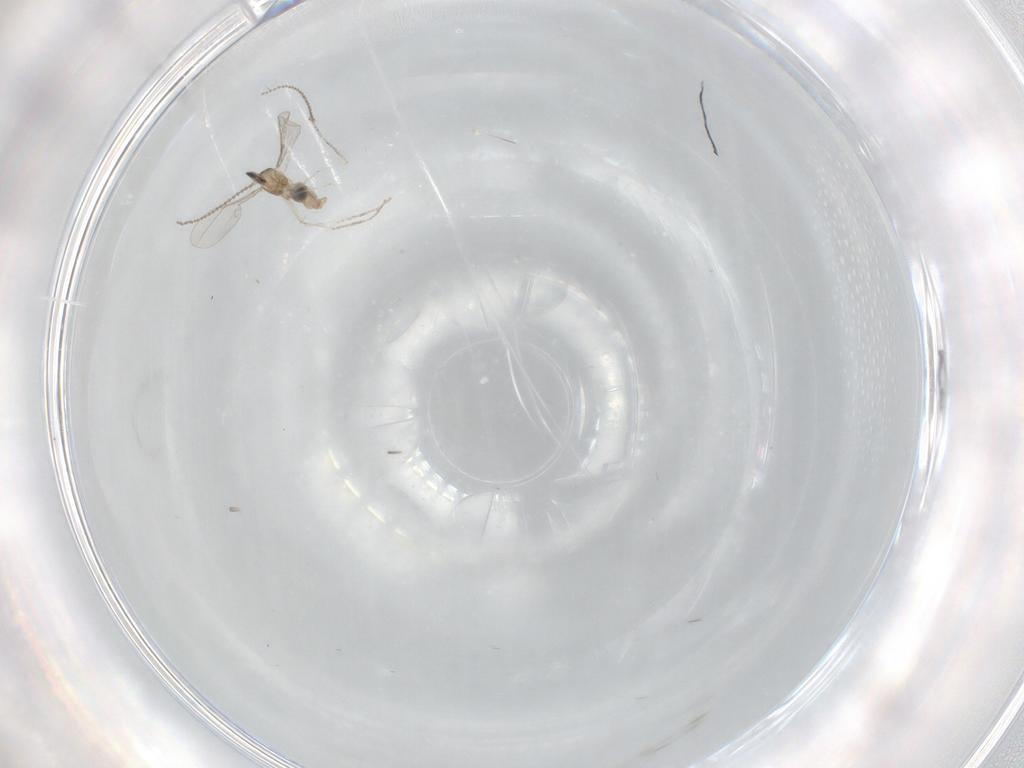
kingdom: Animalia
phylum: Arthropoda
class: Insecta
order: Diptera
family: Cecidomyiidae
